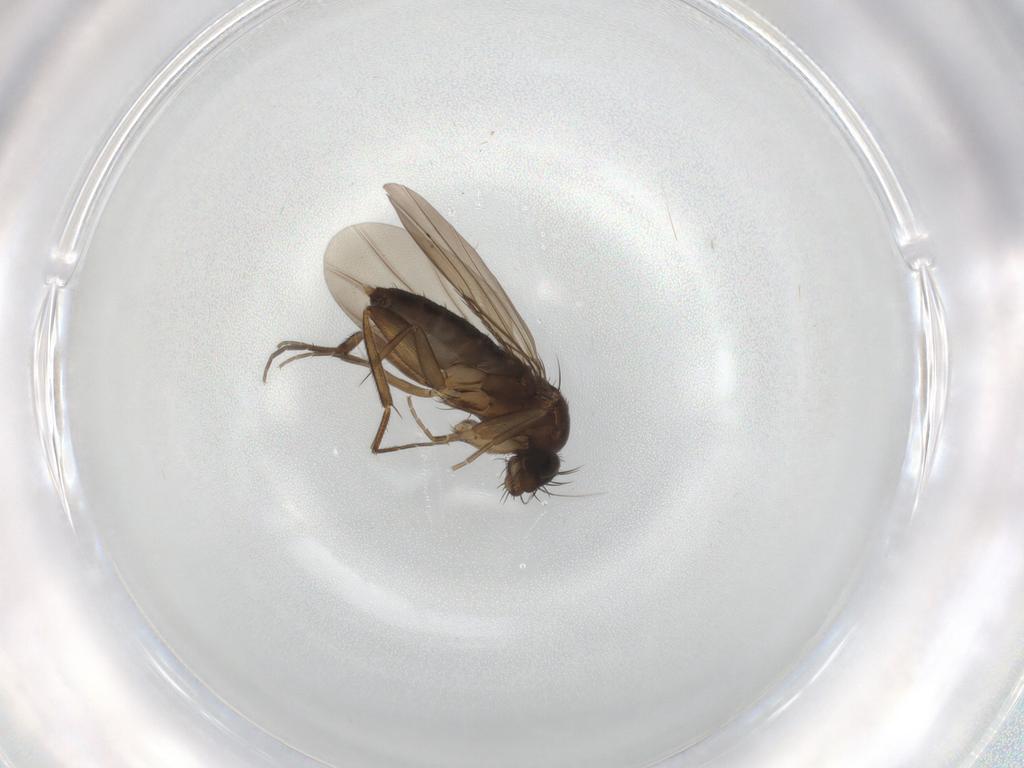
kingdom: Animalia
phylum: Arthropoda
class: Insecta
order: Diptera
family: Phoridae
